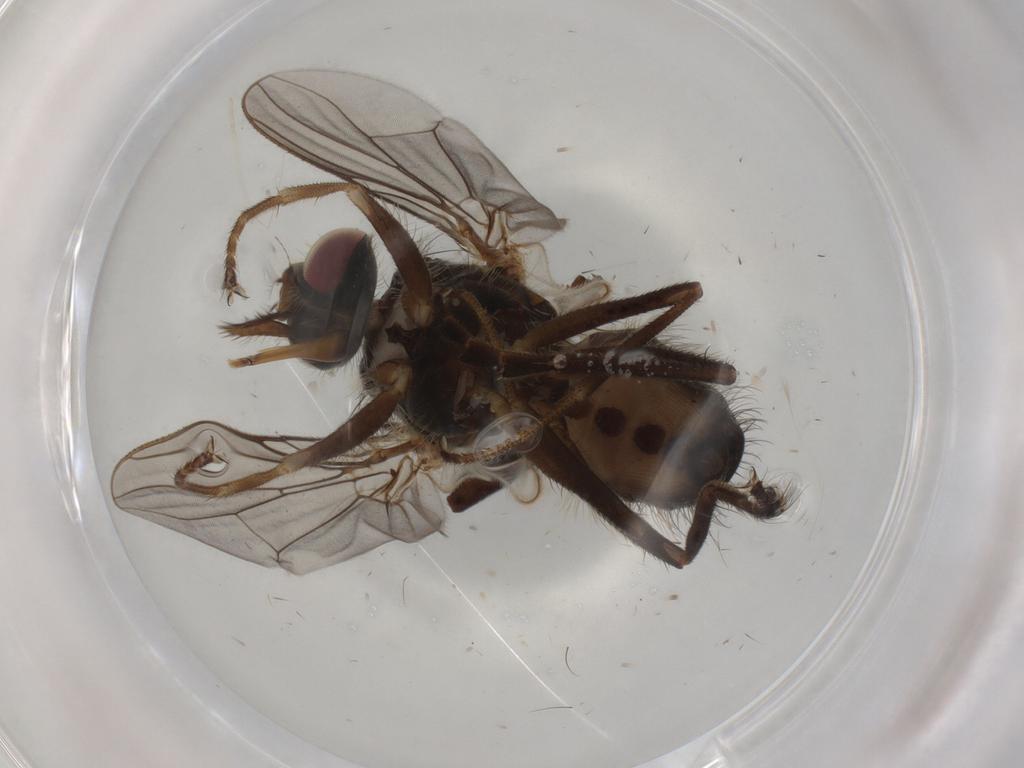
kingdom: Animalia
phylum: Arthropoda
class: Insecta
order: Diptera
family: Tachinidae
